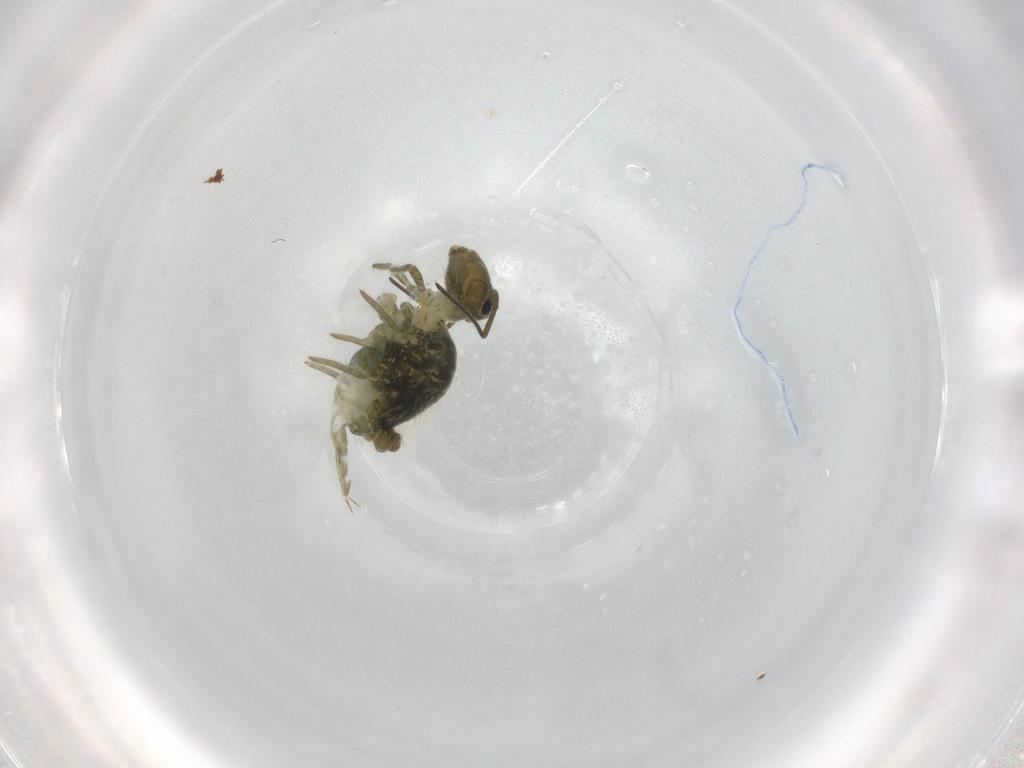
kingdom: Animalia
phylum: Arthropoda
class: Collembola
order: Symphypleona
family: Sminthuridae
